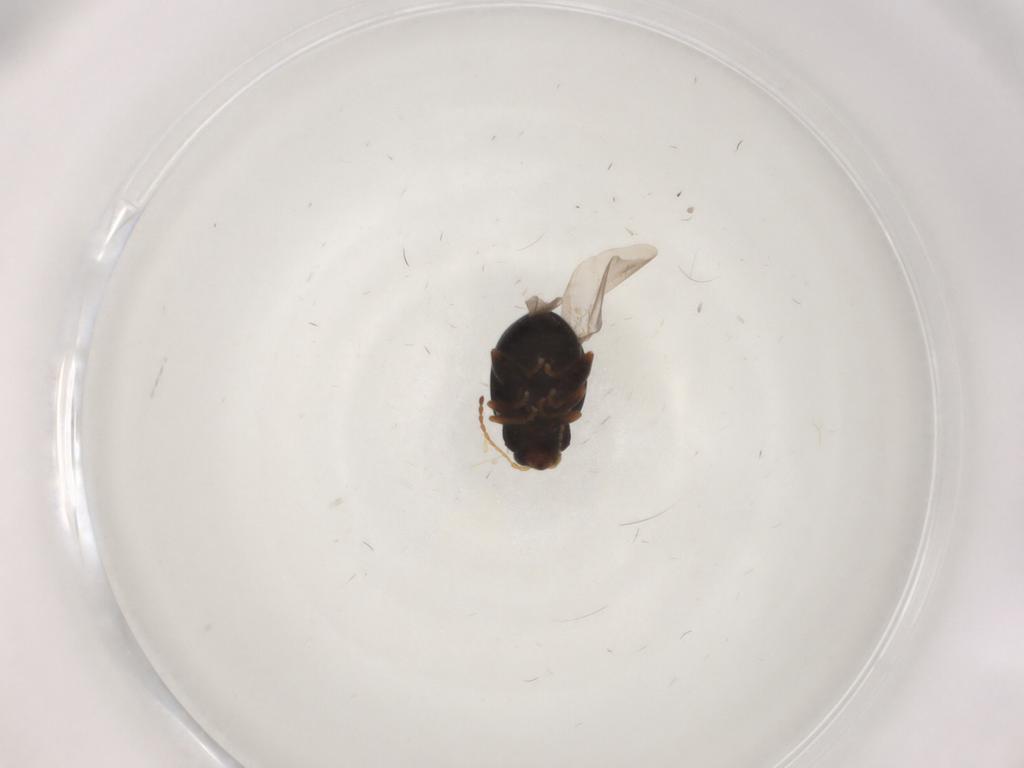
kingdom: Animalia
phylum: Arthropoda
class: Insecta
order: Coleoptera
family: Chrysomelidae
